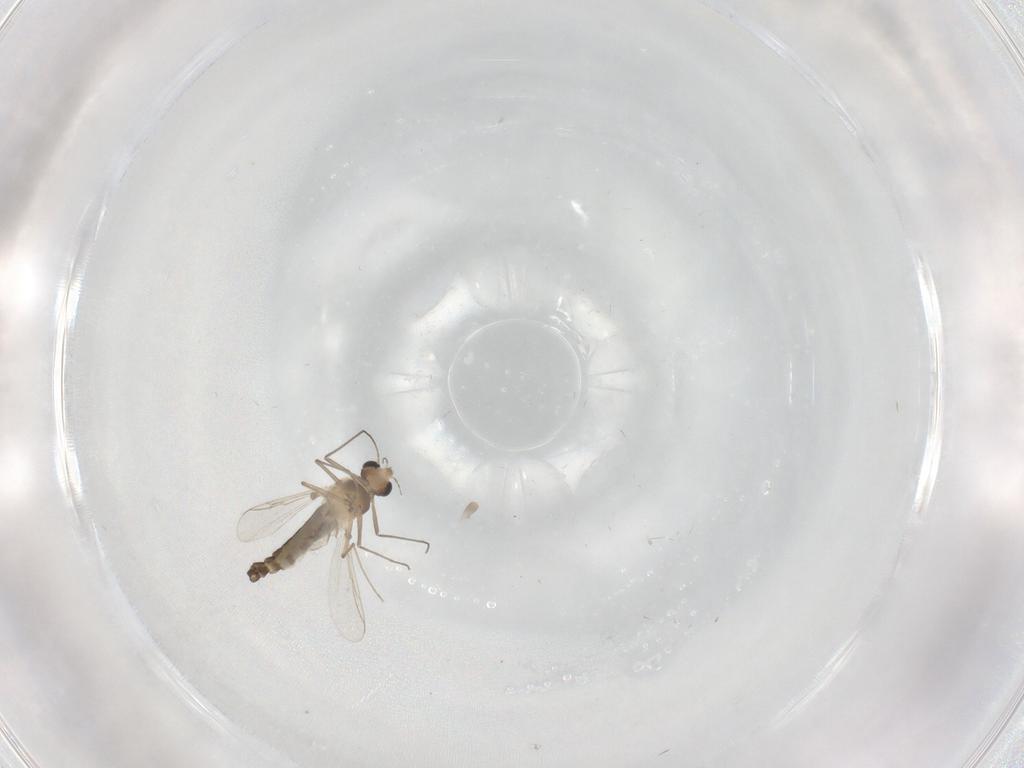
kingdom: Animalia
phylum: Arthropoda
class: Insecta
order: Diptera
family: Chironomidae
